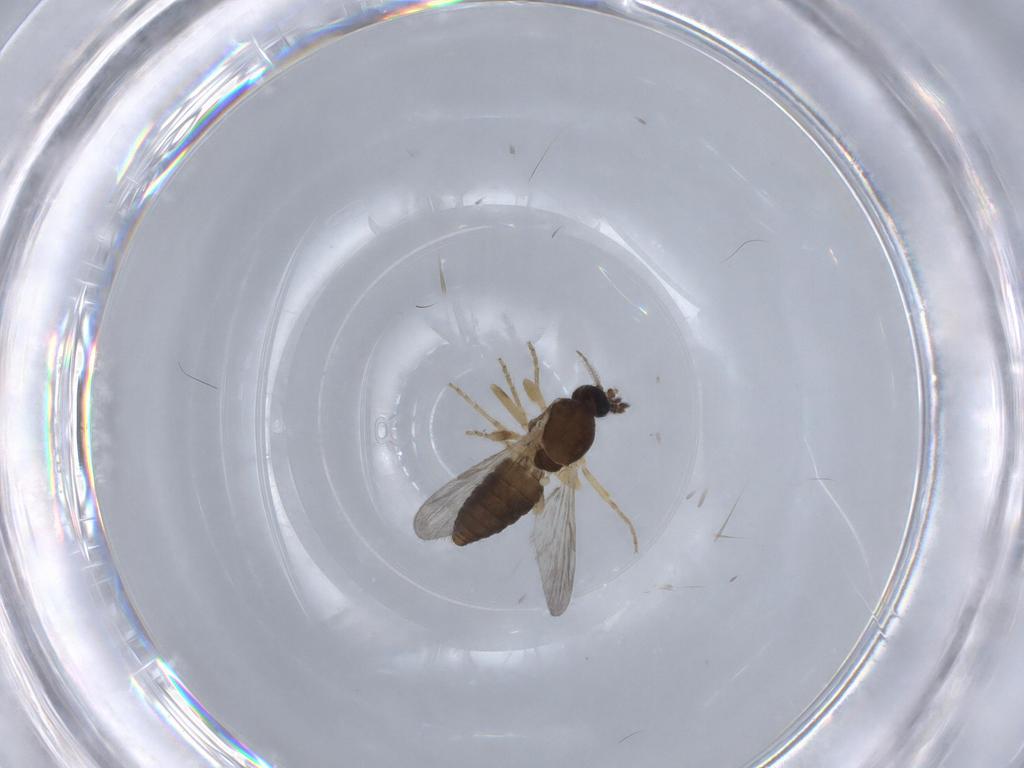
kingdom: Animalia
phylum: Arthropoda
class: Insecta
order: Diptera
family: Ceratopogonidae
